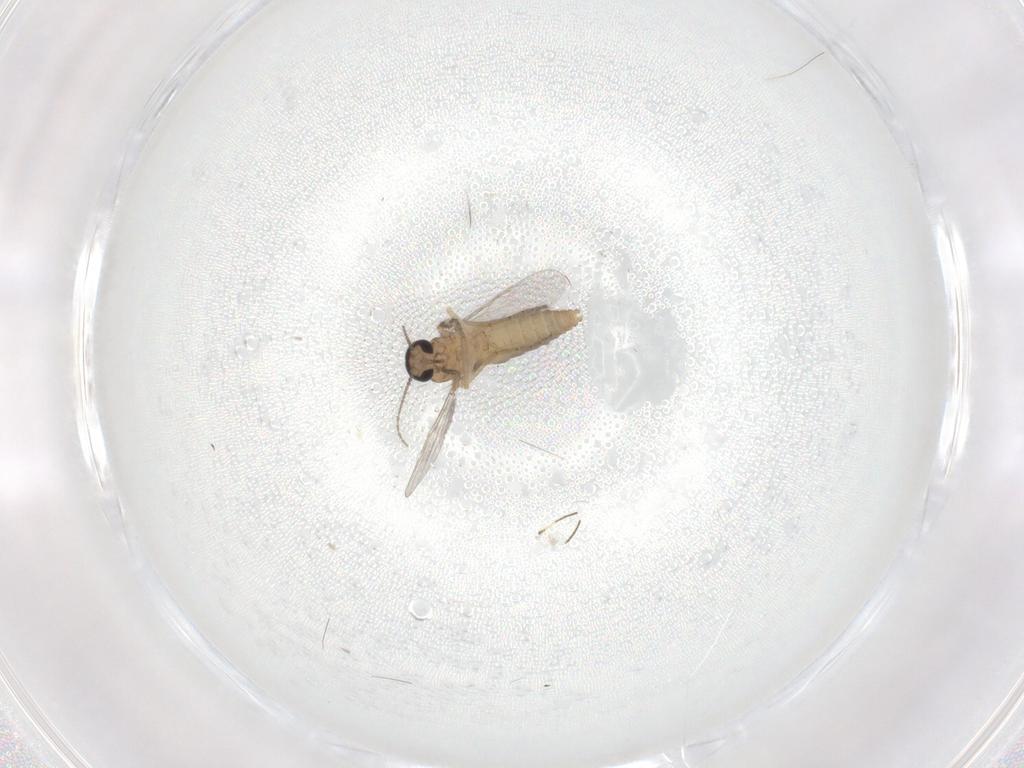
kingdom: Animalia
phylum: Arthropoda
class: Insecta
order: Diptera
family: Ceratopogonidae
